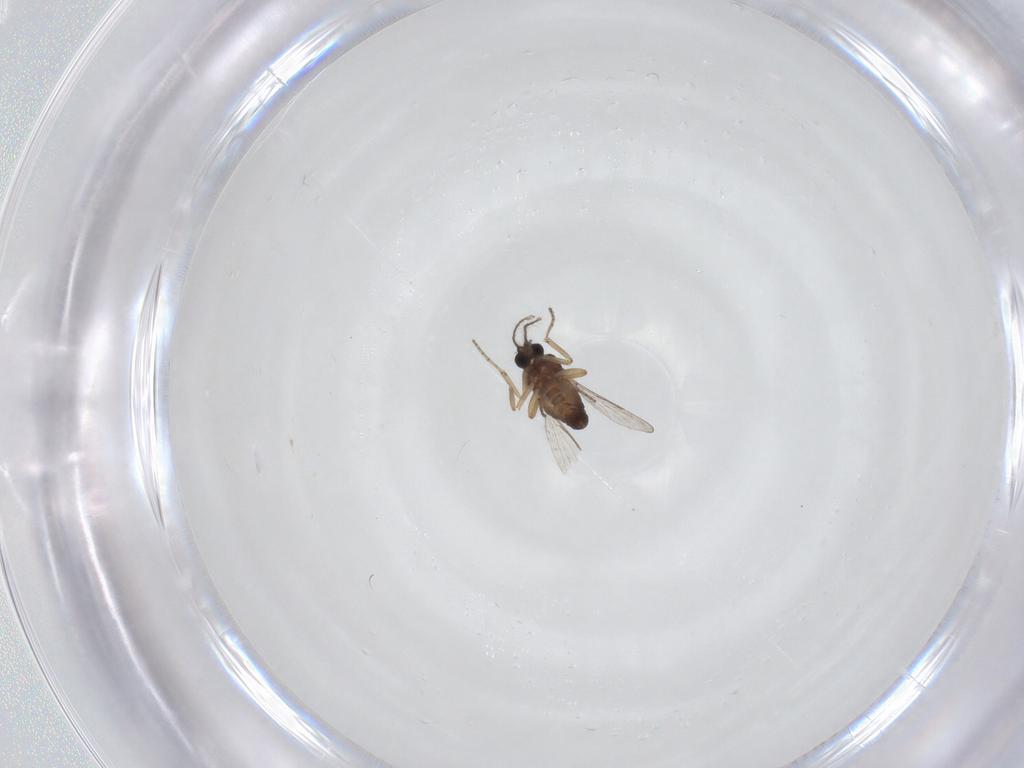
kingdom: Animalia
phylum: Arthropoda
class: Insecta
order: Diptera
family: Ceratopogonidae
